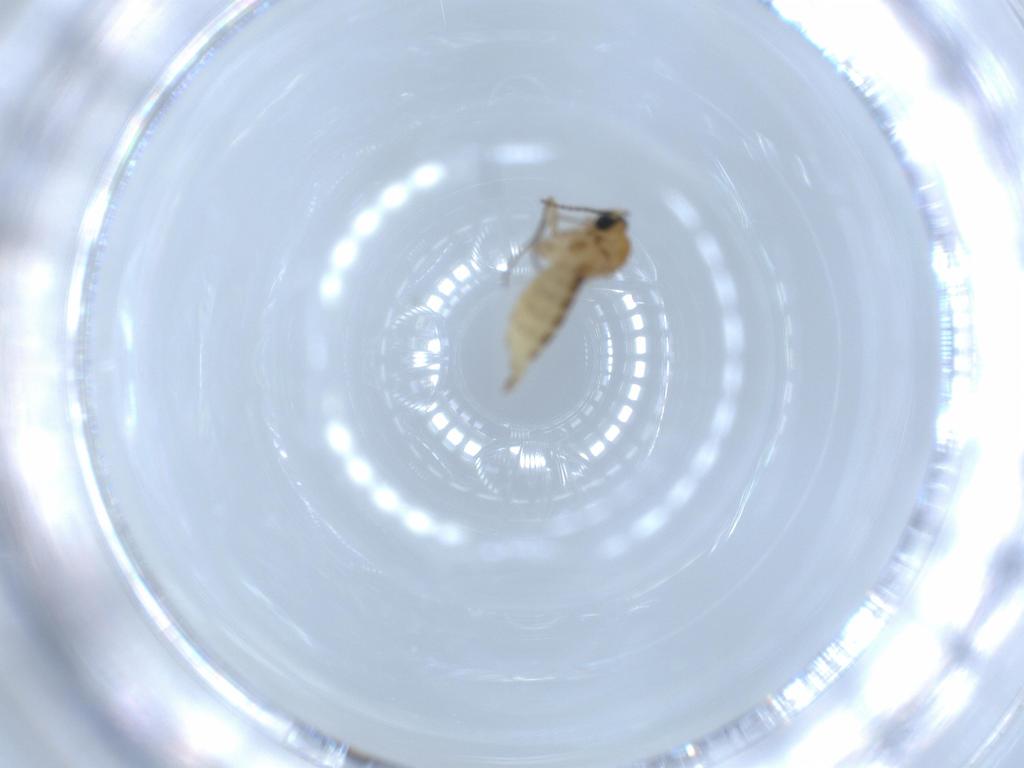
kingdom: Animalia
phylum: Arthropoda
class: Insecta
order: Diptera
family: Sciaridae
